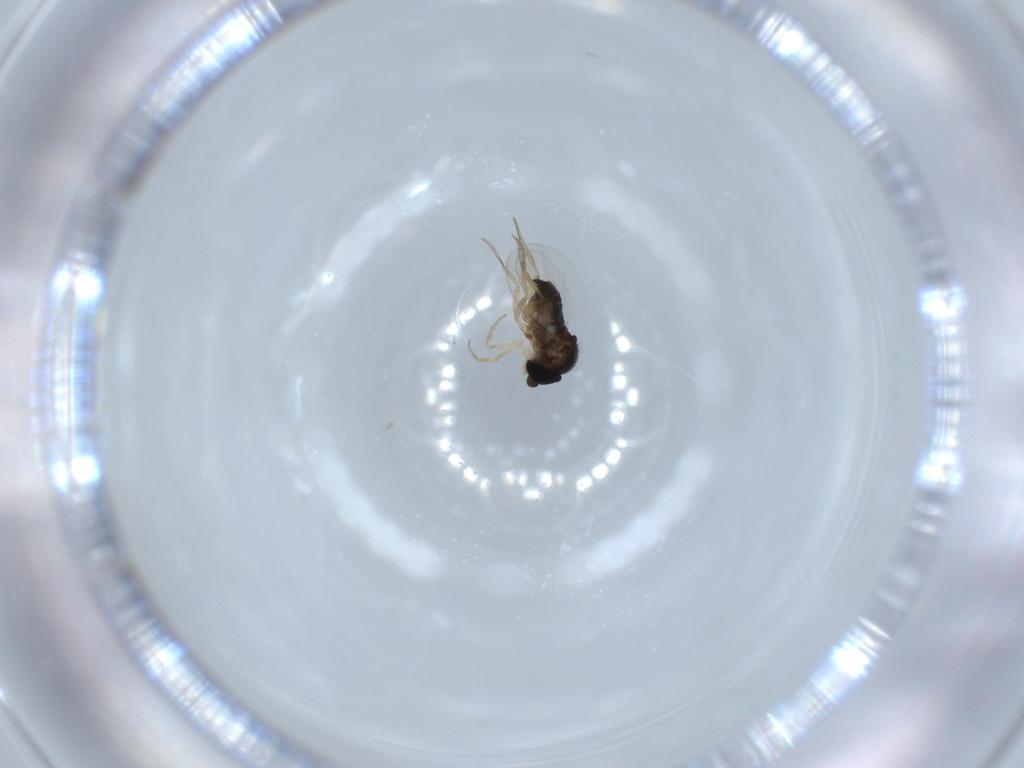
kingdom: Animalia
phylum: Arthropoda
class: Insecta
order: Diptera
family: Phoridae
